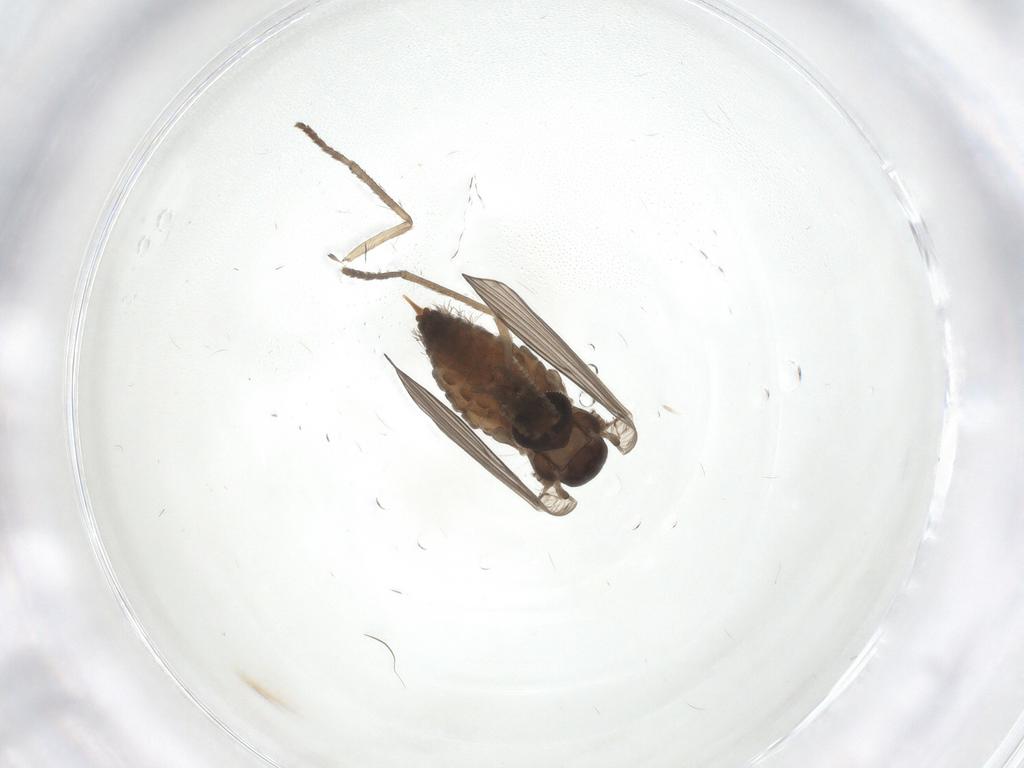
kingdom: Animalia
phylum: Arthropoda
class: Insecta
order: Diptera
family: Psychodidae
